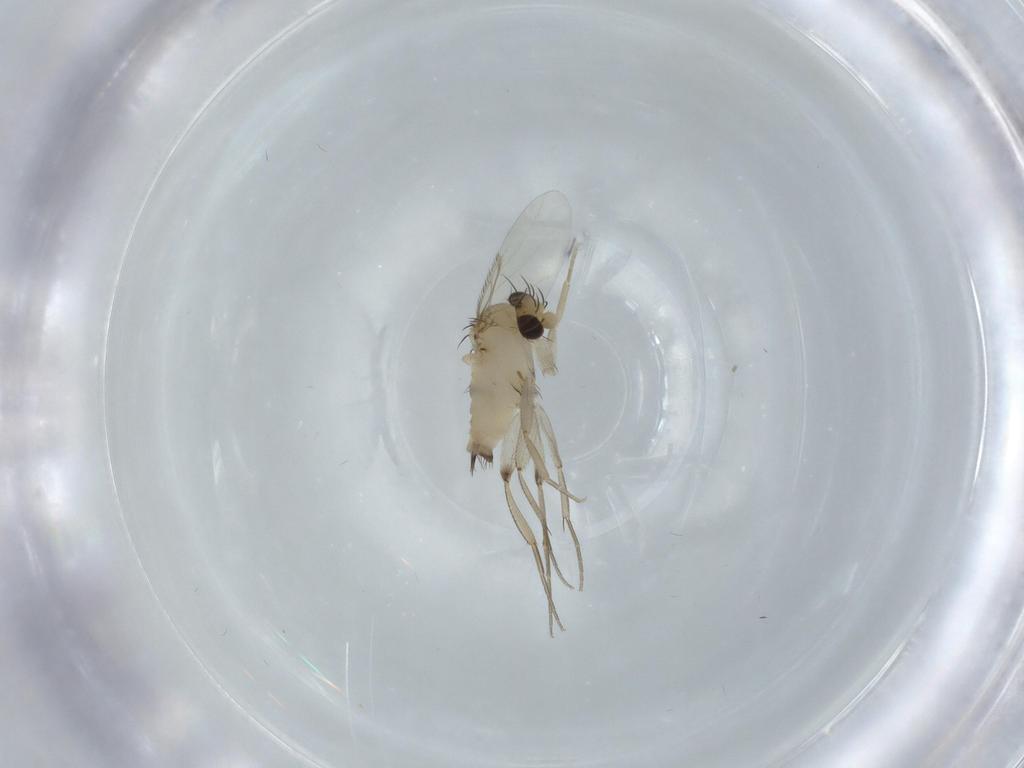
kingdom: Animalia
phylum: Arthropoda
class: Insecta
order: Diptera
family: Phoridae
